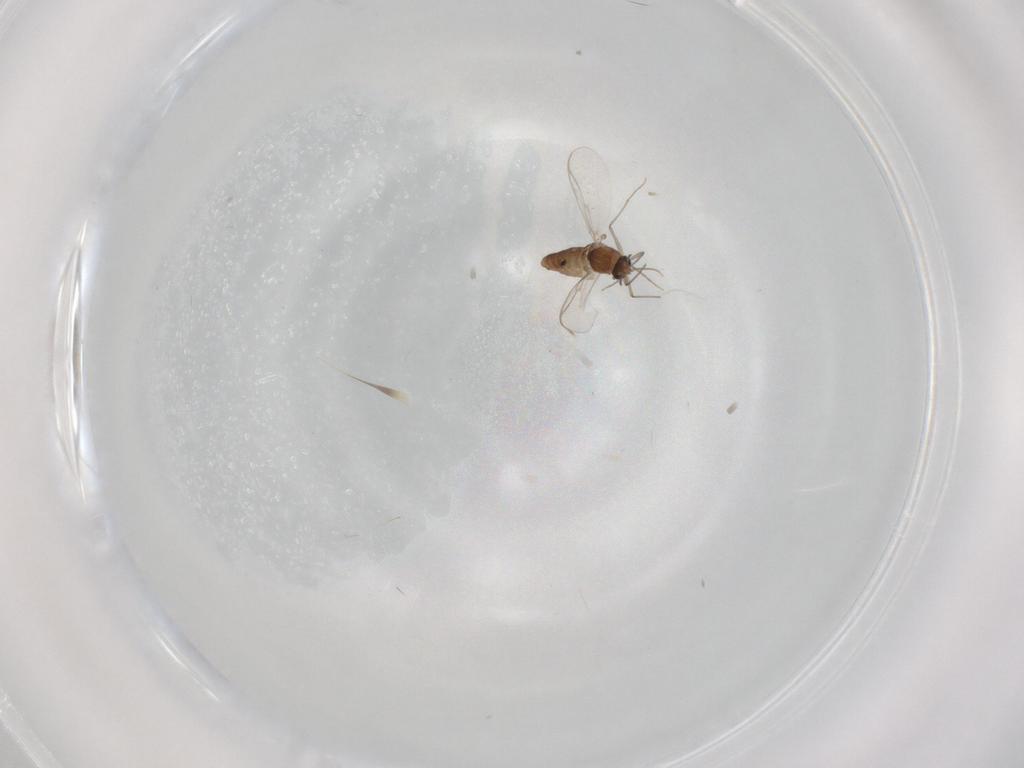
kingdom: Animalia
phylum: Arthropoda
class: Insecta
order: Diptera
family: Chironomidae
